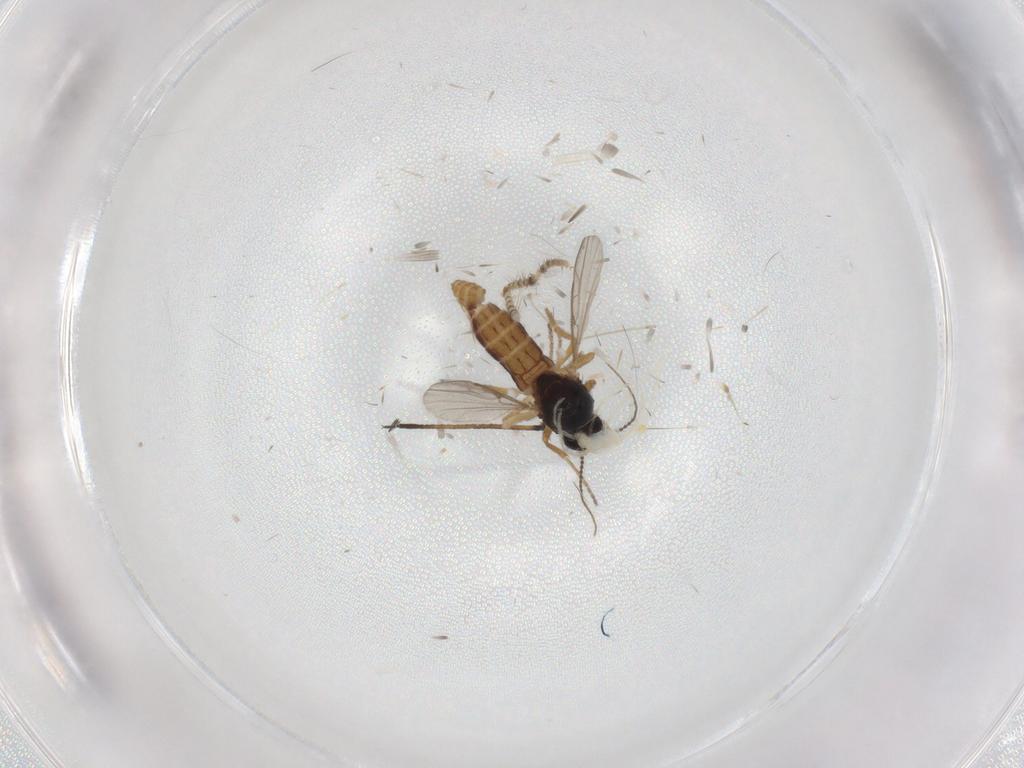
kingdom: Animalia
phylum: Arthropoda
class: Insecta
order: Diptera
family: Ceratopogonidae
